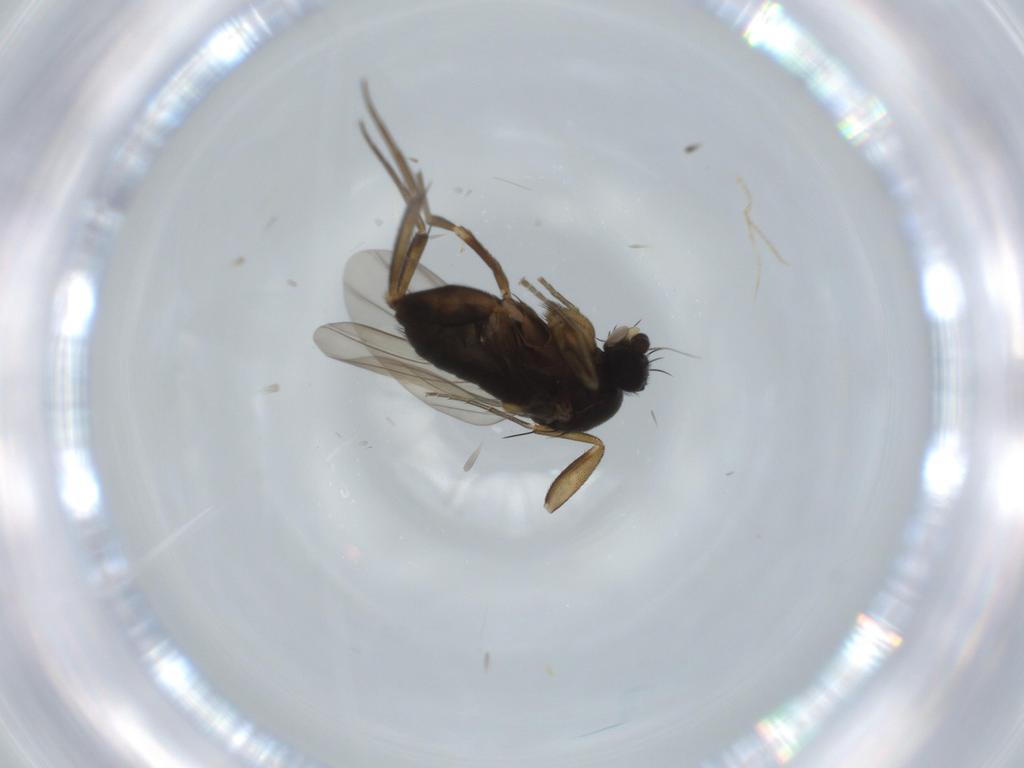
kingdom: Animalia
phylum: Arthropoda
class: Insecta
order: Diptera
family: Phoridae
